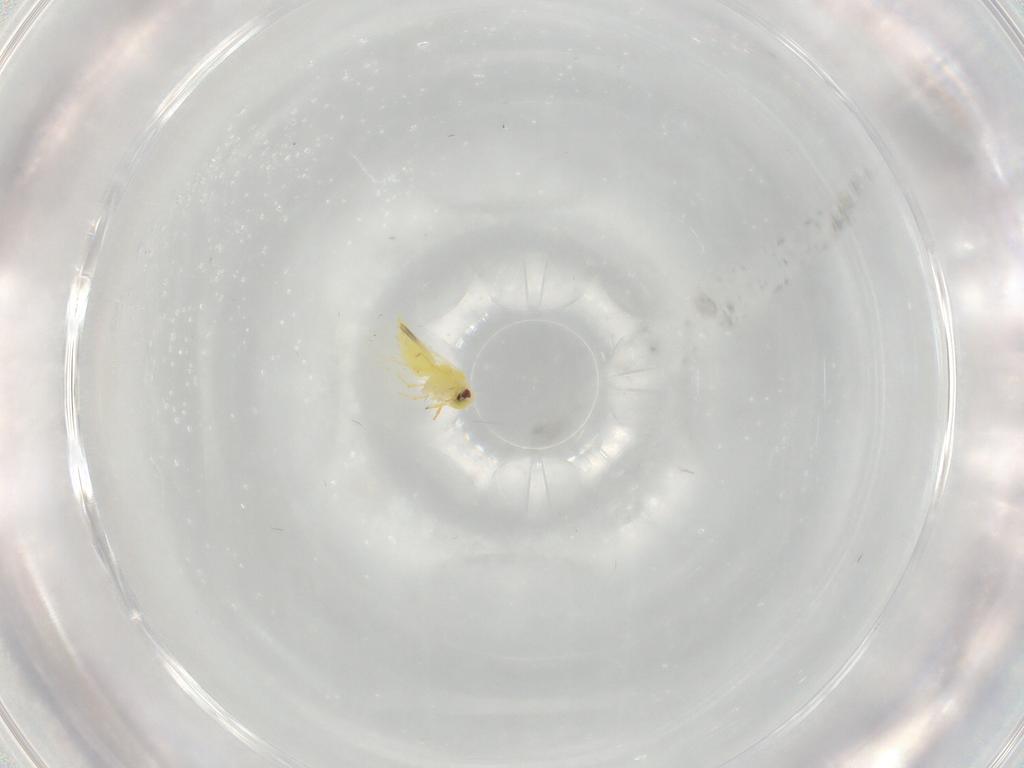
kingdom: Animalia
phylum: Arthropoda
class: Insecta
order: Hemiptera
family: Aleyrodidae
